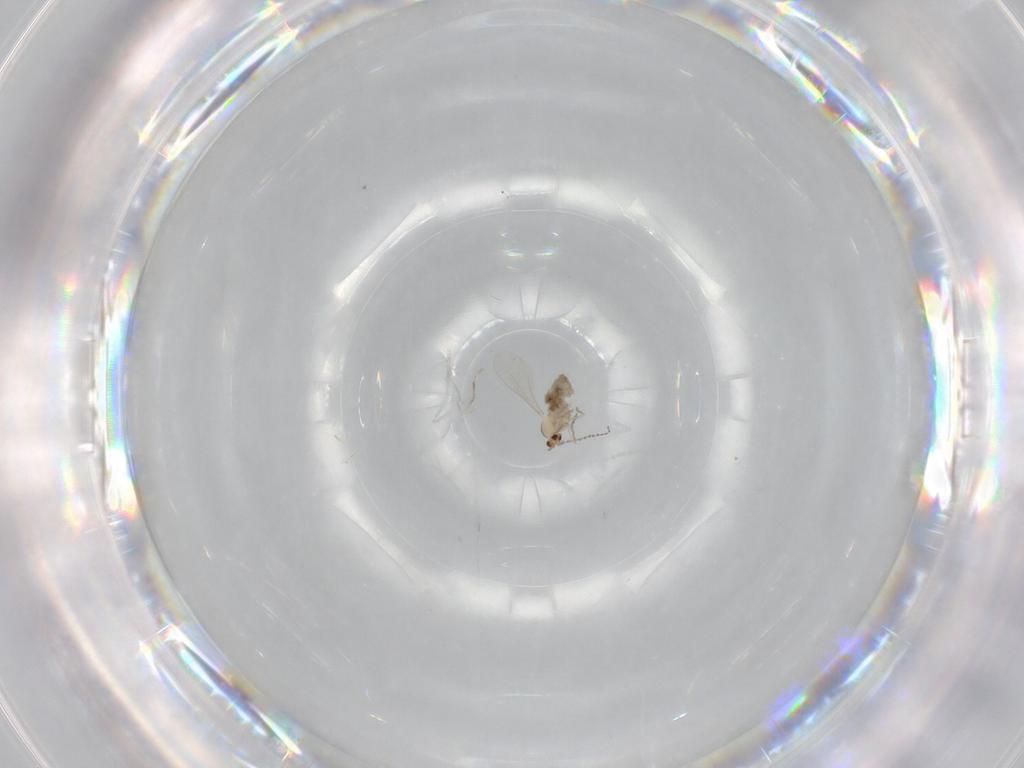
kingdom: Animalia
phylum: Arthropoda
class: Insecta
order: Diptera
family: Cecidomyiidae
